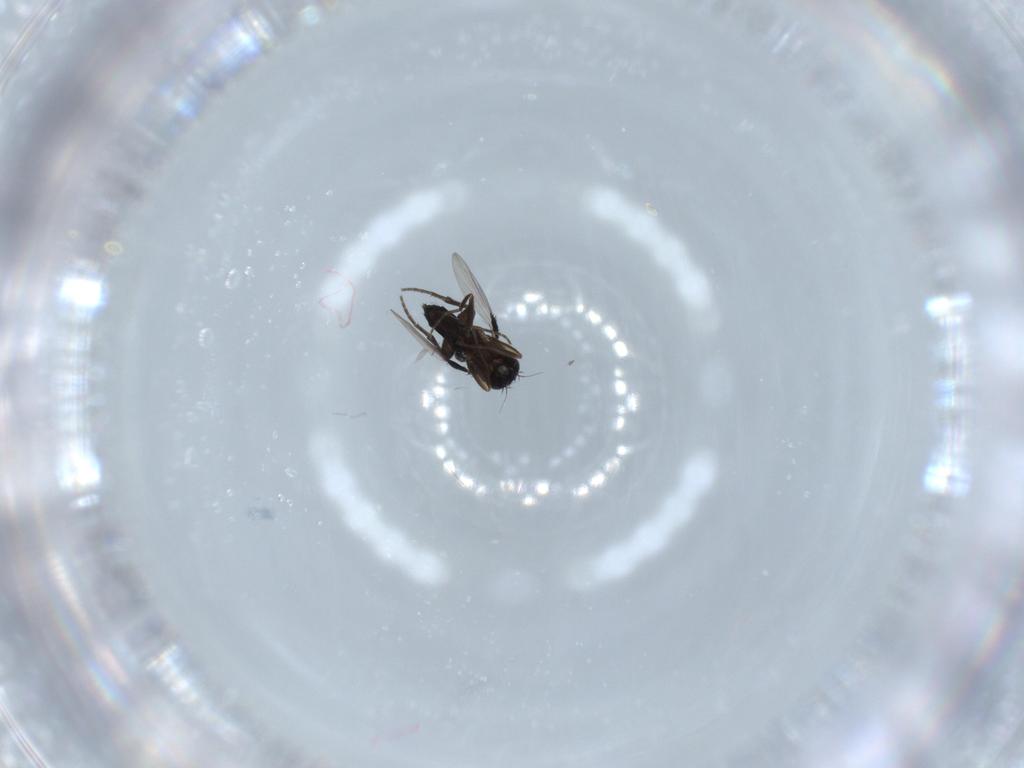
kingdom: Animalia
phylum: Arthropoda
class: Insecta
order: Diptera
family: Phoridae
